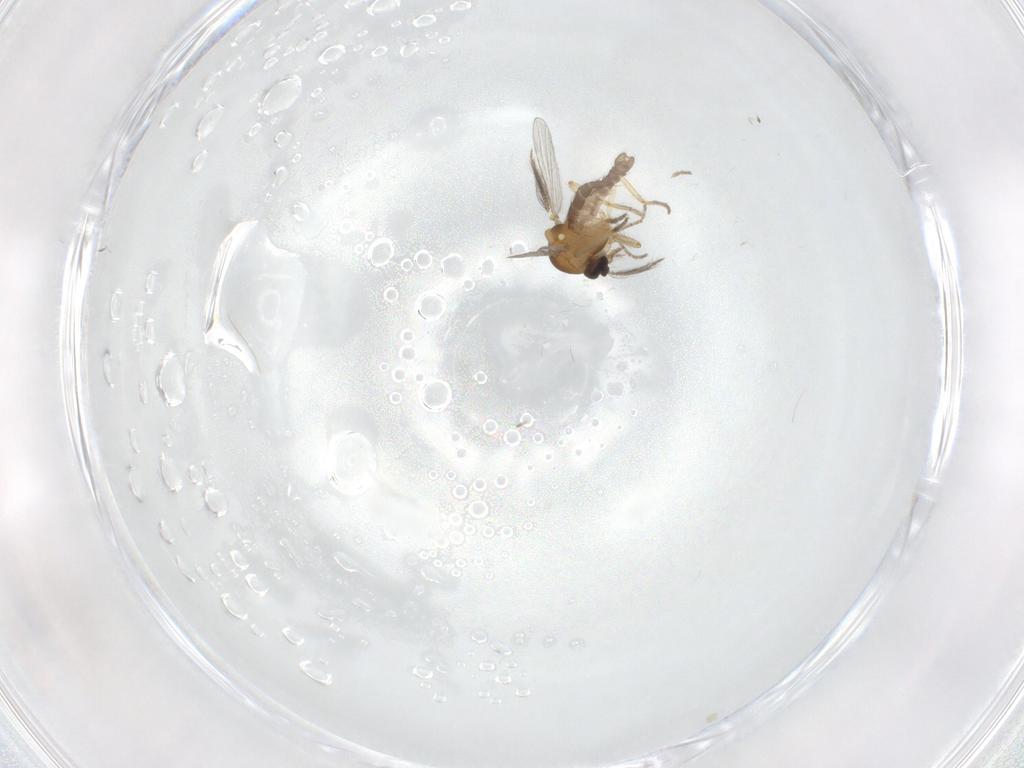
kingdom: Animalia
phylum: Arthropoda
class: Insecta
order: Diptera
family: Ceratopogonidae
